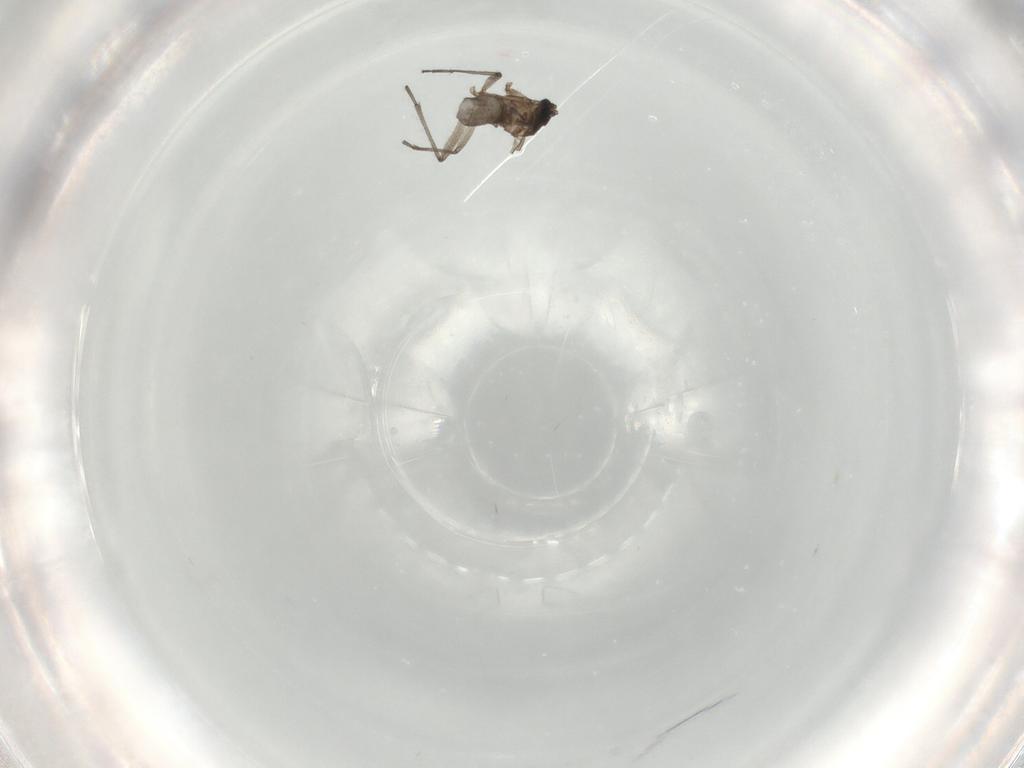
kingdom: Animalia
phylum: Arthropoda
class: Insecta
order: Diptera
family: Sciaridae
